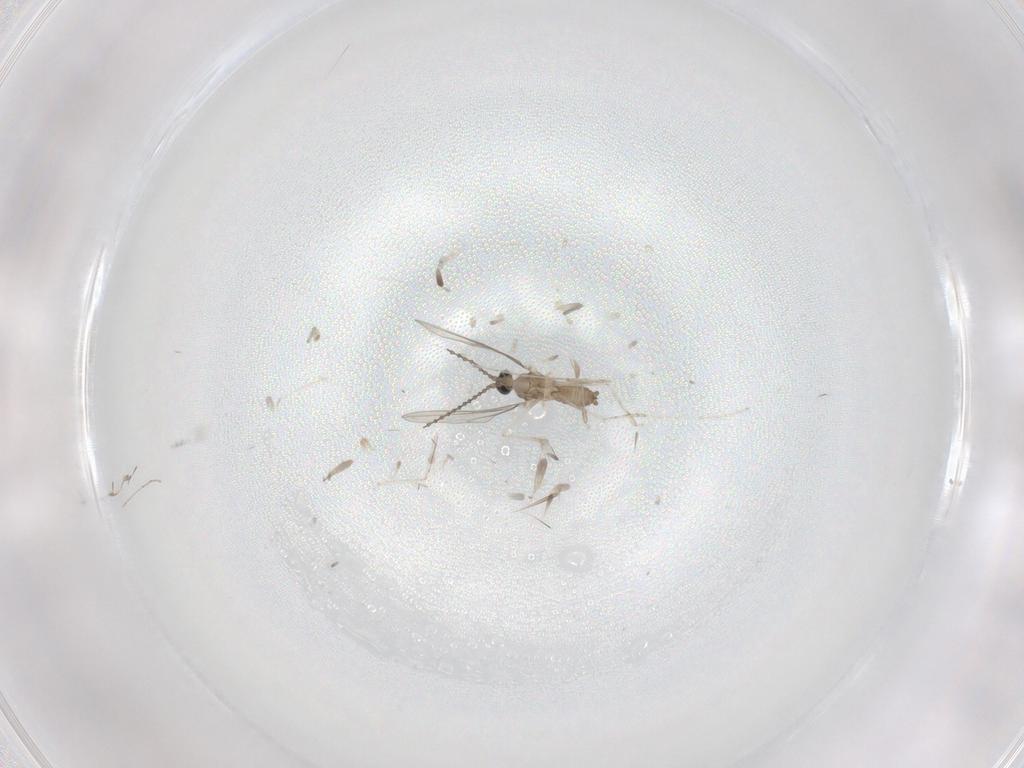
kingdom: Animalia
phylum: Arthropoda
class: Insecta
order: Diptera
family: Cecidomyiidae
